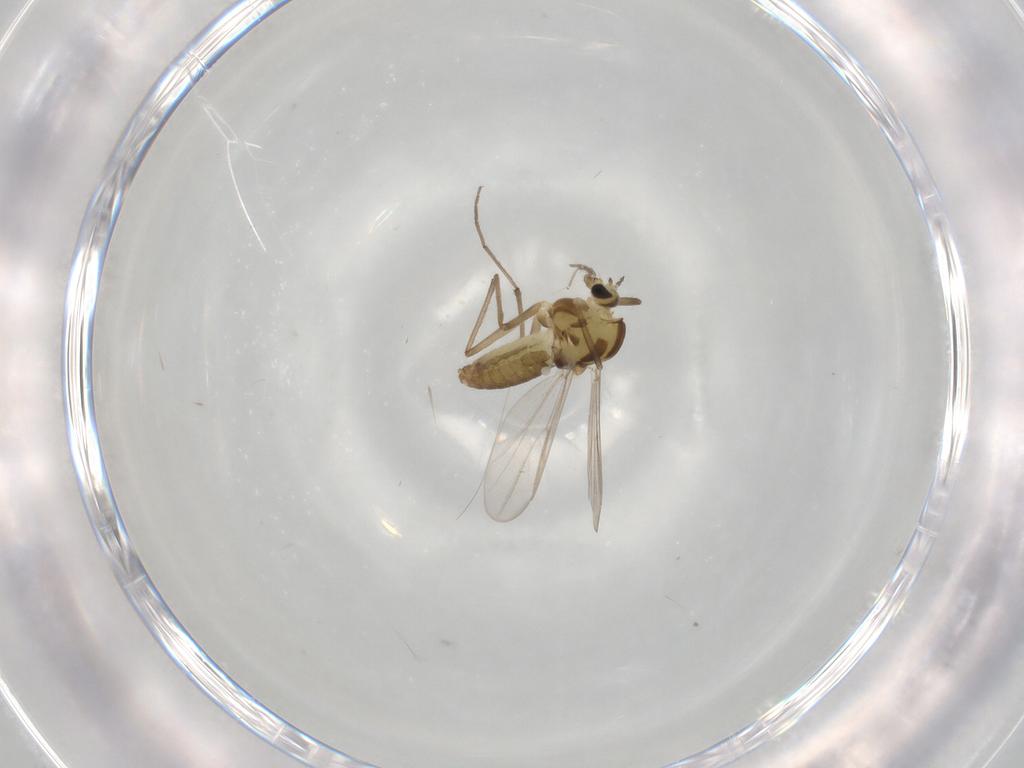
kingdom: Animalia
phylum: Arthropoda
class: Insecta
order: Diptera
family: Chironomidae
